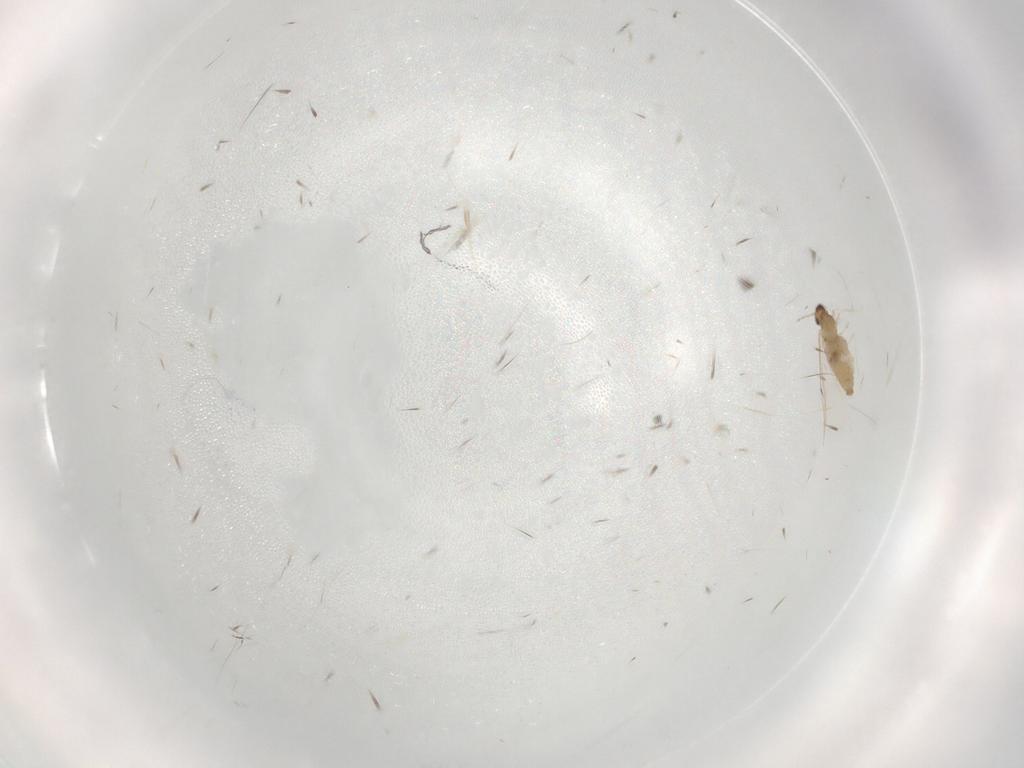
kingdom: Animalia
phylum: Arthropoda
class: Insecta
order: Diptera
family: Cecidomyiidae
